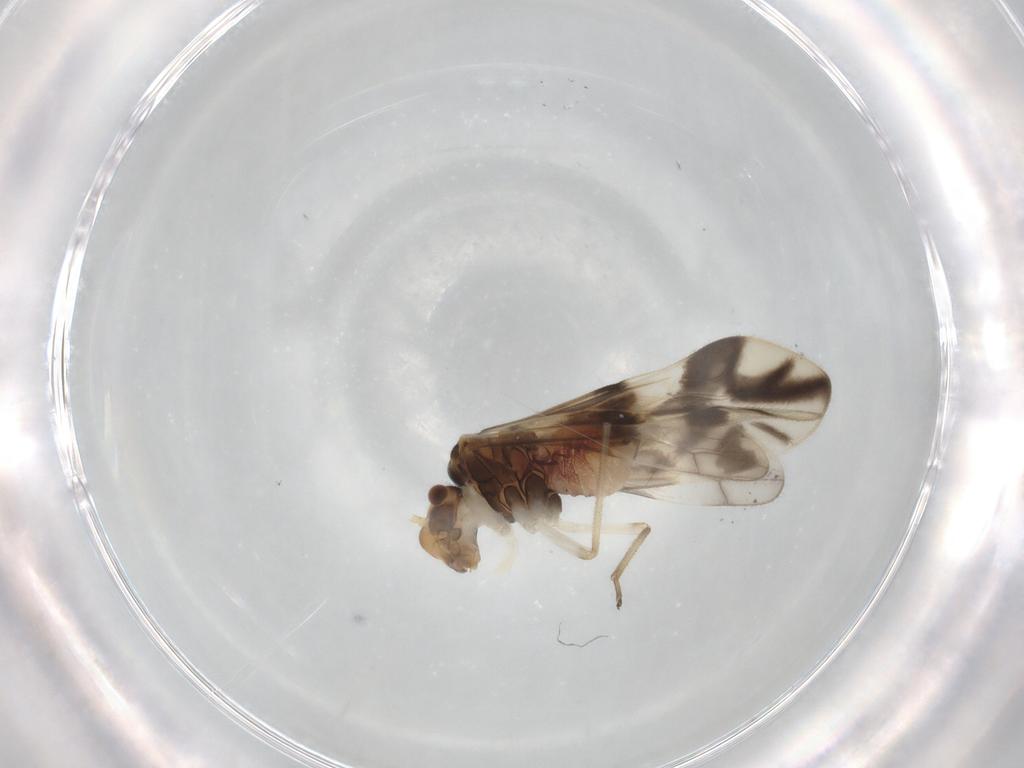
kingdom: Animalia
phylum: Arthropoda
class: Insecta
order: Psocodea
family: Caeciliusidae
